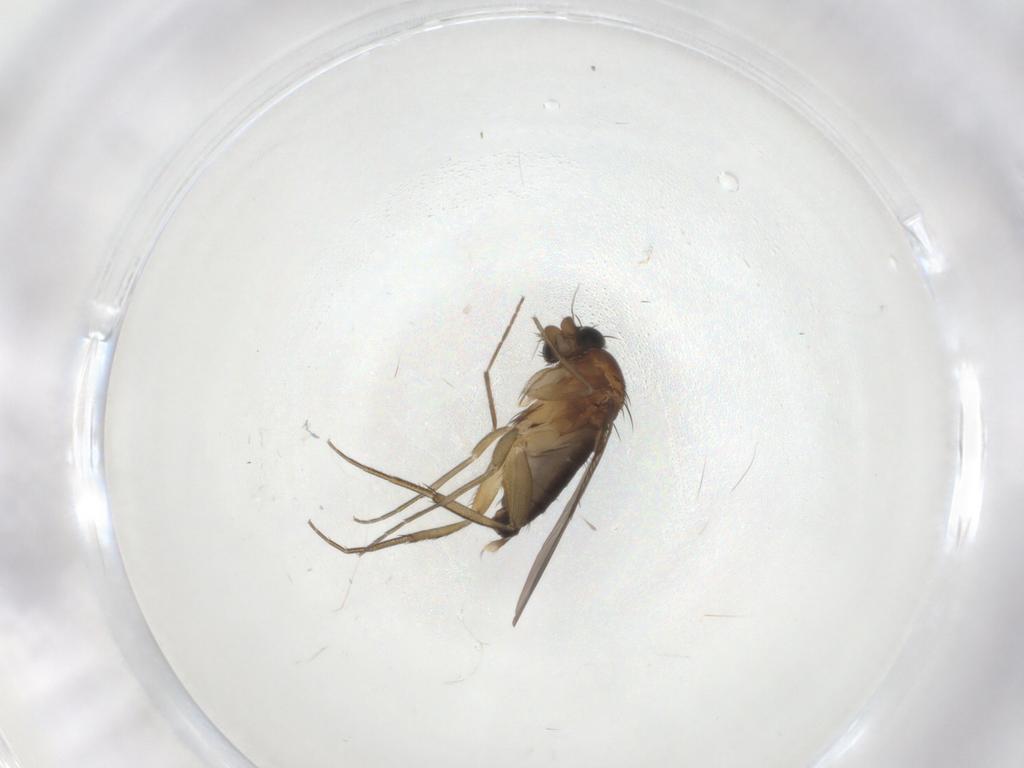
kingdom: Animalia
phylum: Arthropoda
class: Insecta
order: Diptera
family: Phoridae
